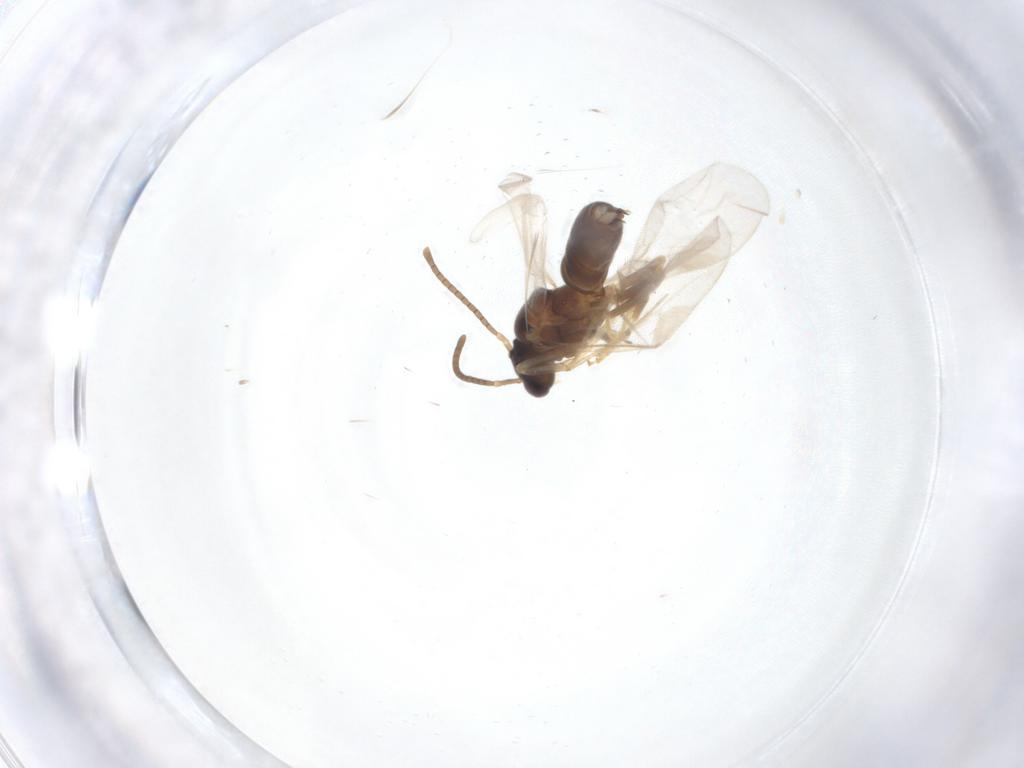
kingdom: Animalia
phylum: Arthropoda
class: Insecta
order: Hymenoptera
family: Formicidae
